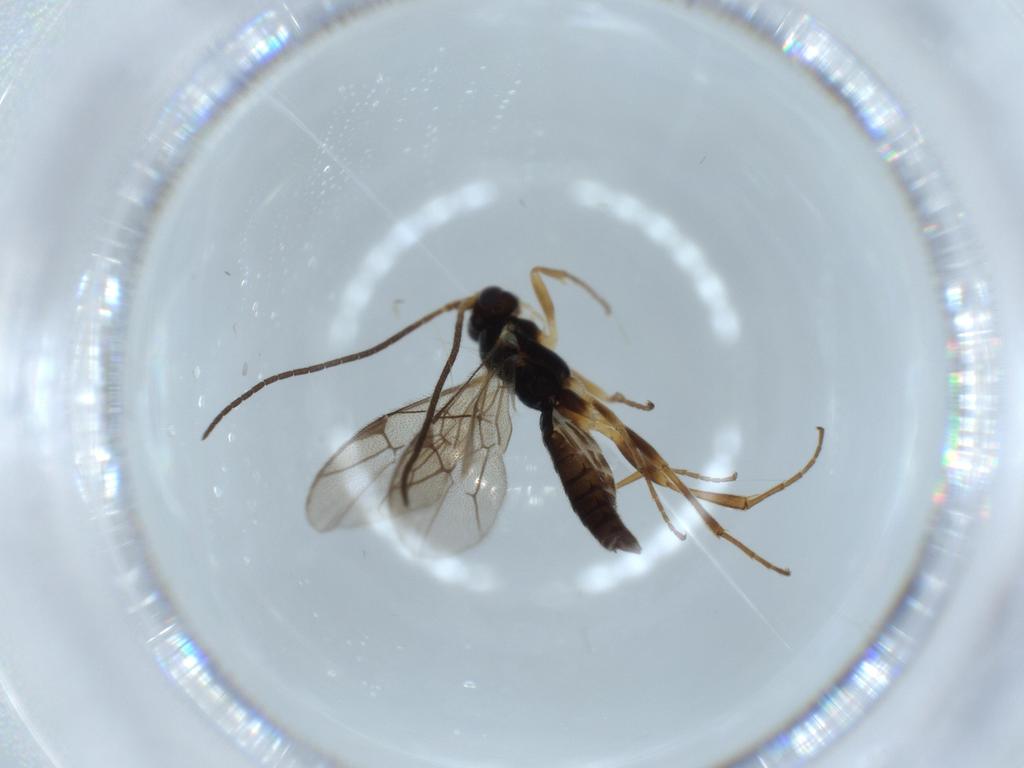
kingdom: Animalia
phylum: Arthropoda
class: Insecta
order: Hymenoptera
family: Ichneumonidae
